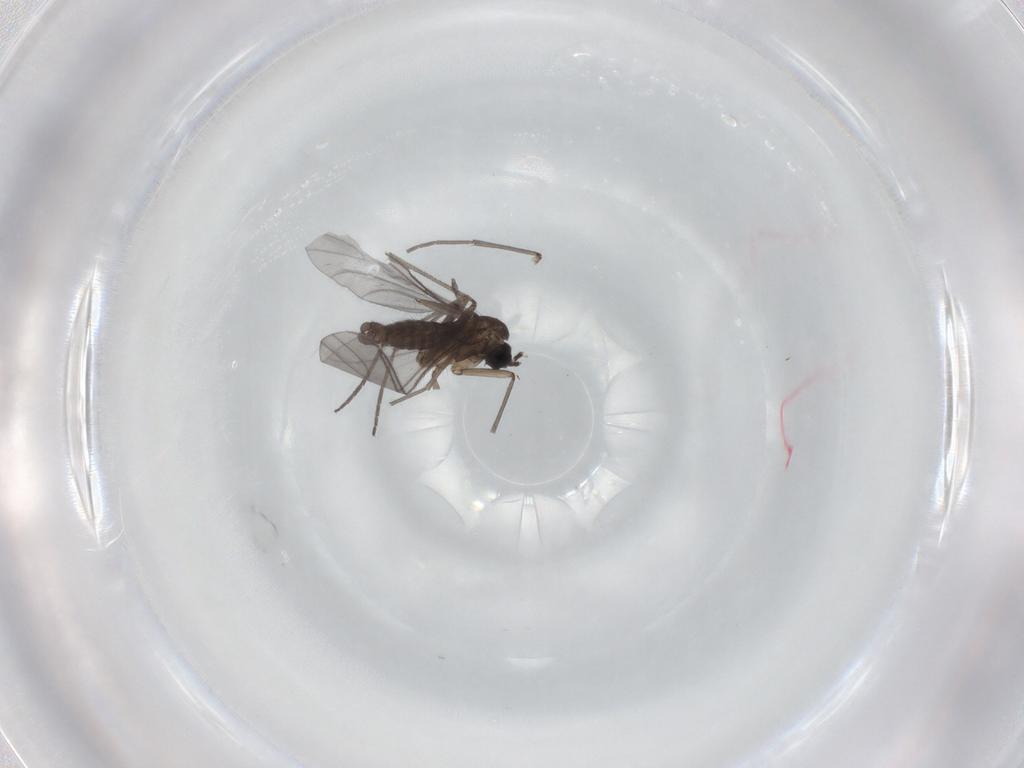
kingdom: Animalia
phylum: Arthropoda
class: Insecta
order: Diptera
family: Sciaridae
